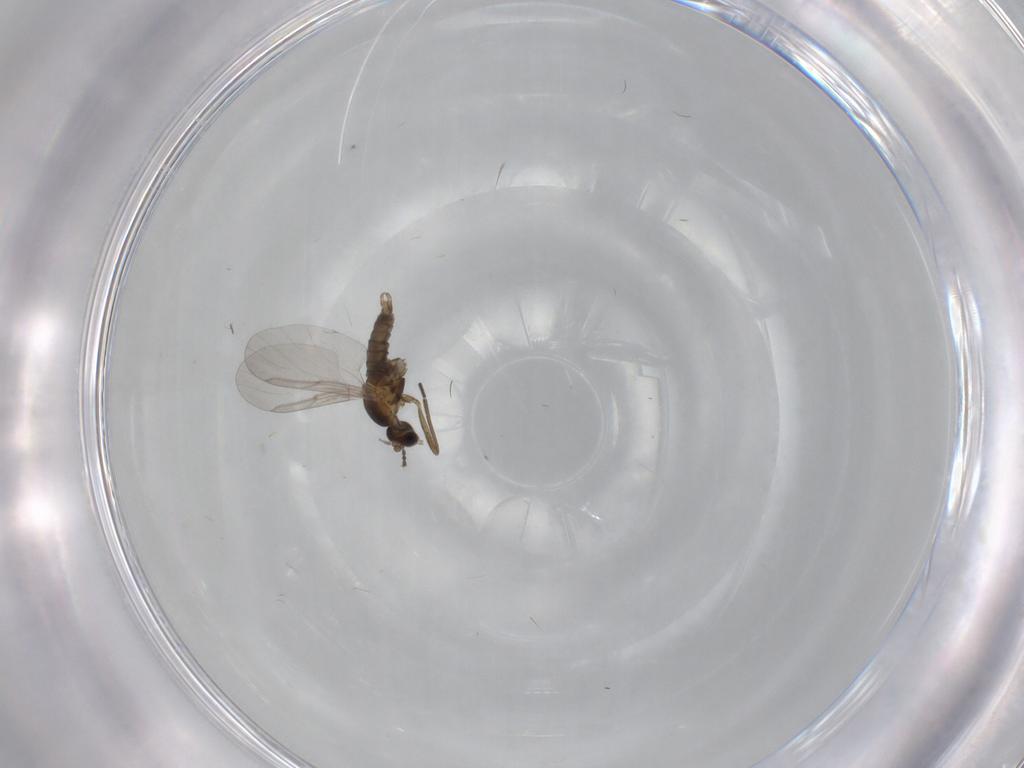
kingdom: Animalia
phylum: Arthropoda
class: Insecta
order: Diptera
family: Cecidomyiidae
